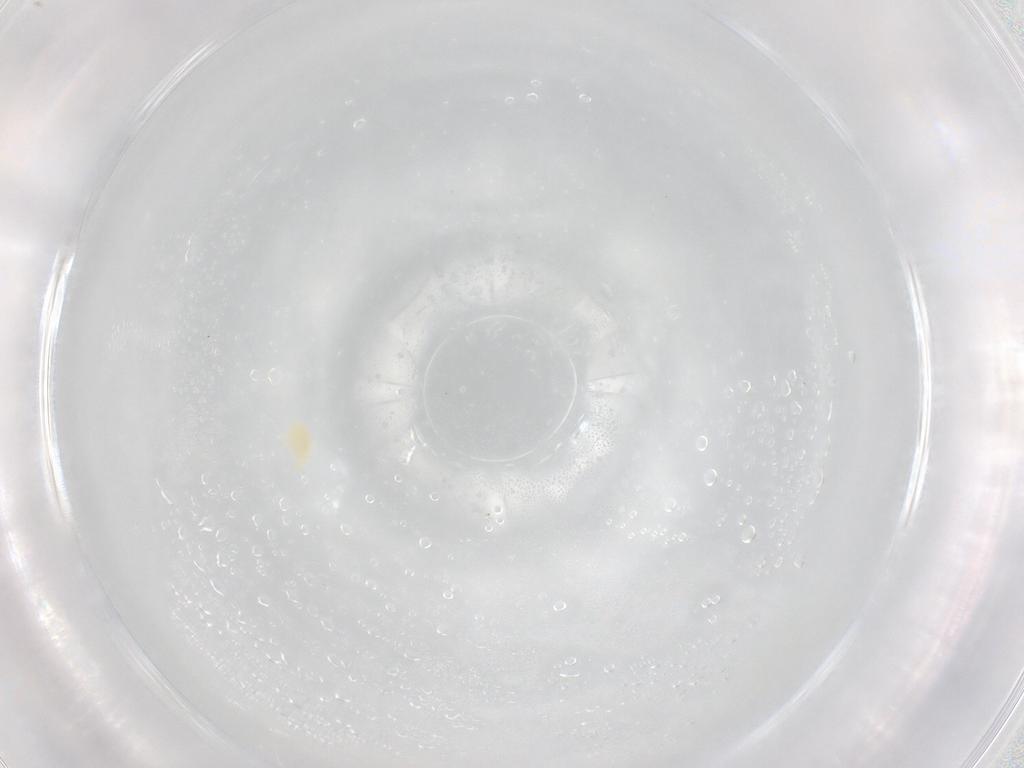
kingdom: Animalia
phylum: Arthropoda
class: Arachnida
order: Trombidiformes
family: Eupodidae
